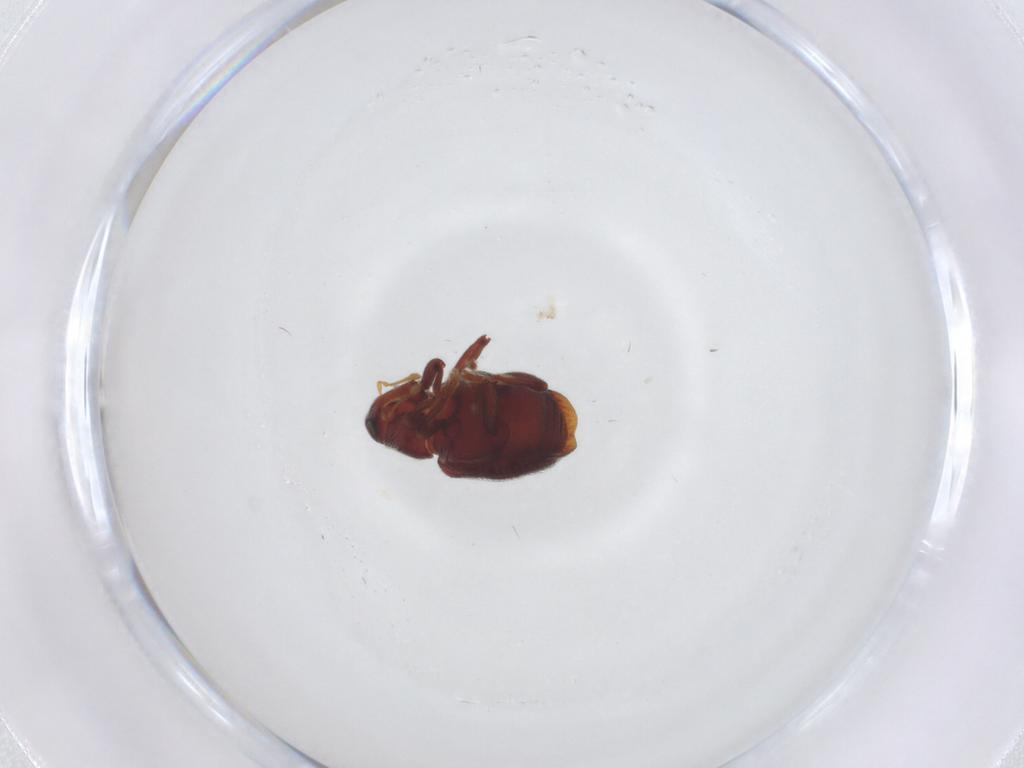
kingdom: Animalia
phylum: Arthropoda
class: Insecta
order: Coleoptera
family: Curculionidae
